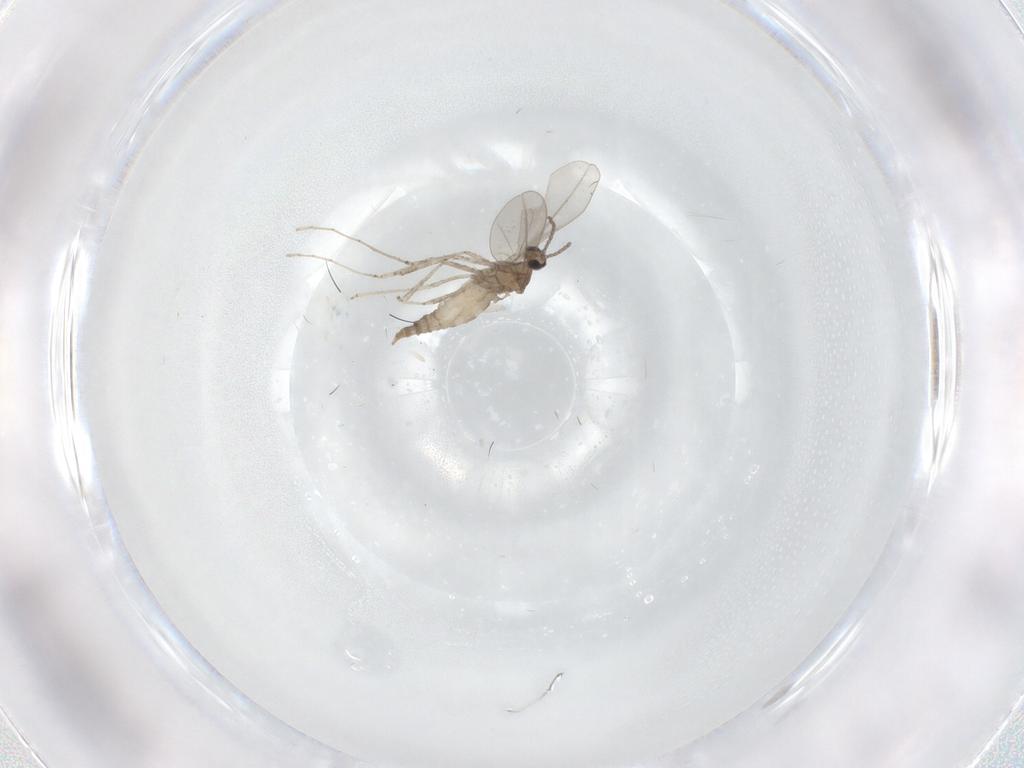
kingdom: Animalia
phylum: Arthropoda
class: Insecta
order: Diptera
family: Cecidomyiidae
